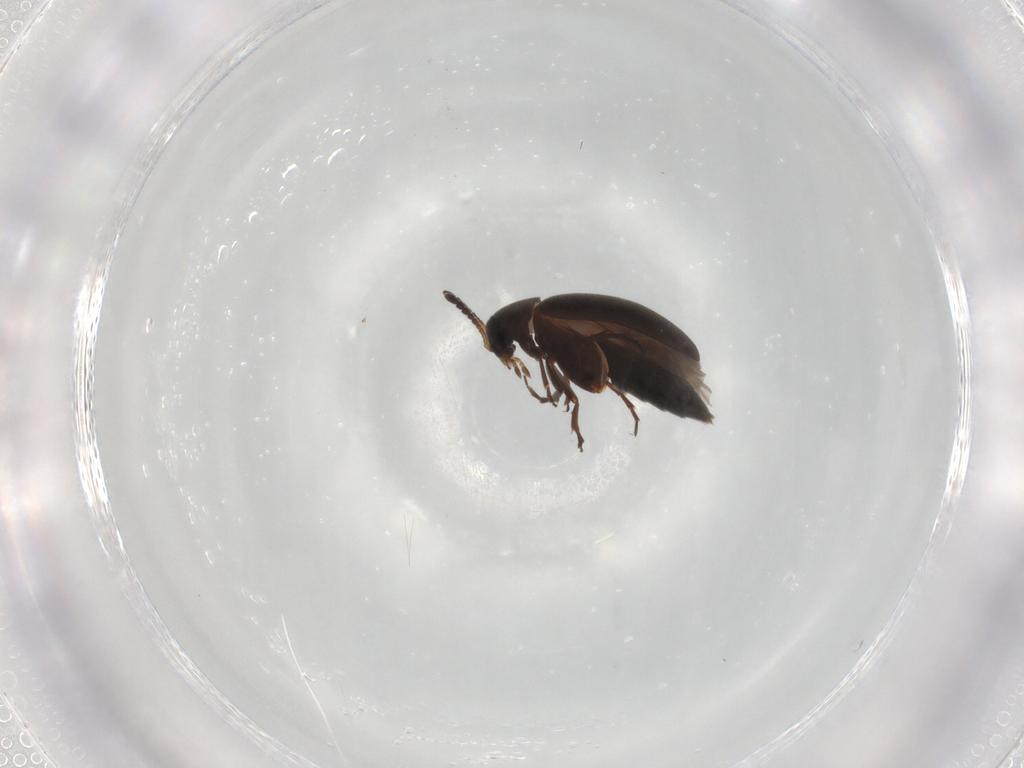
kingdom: Animalia
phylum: Arthropoda
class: Insecta
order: Coleoptera
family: Scraptiidae
